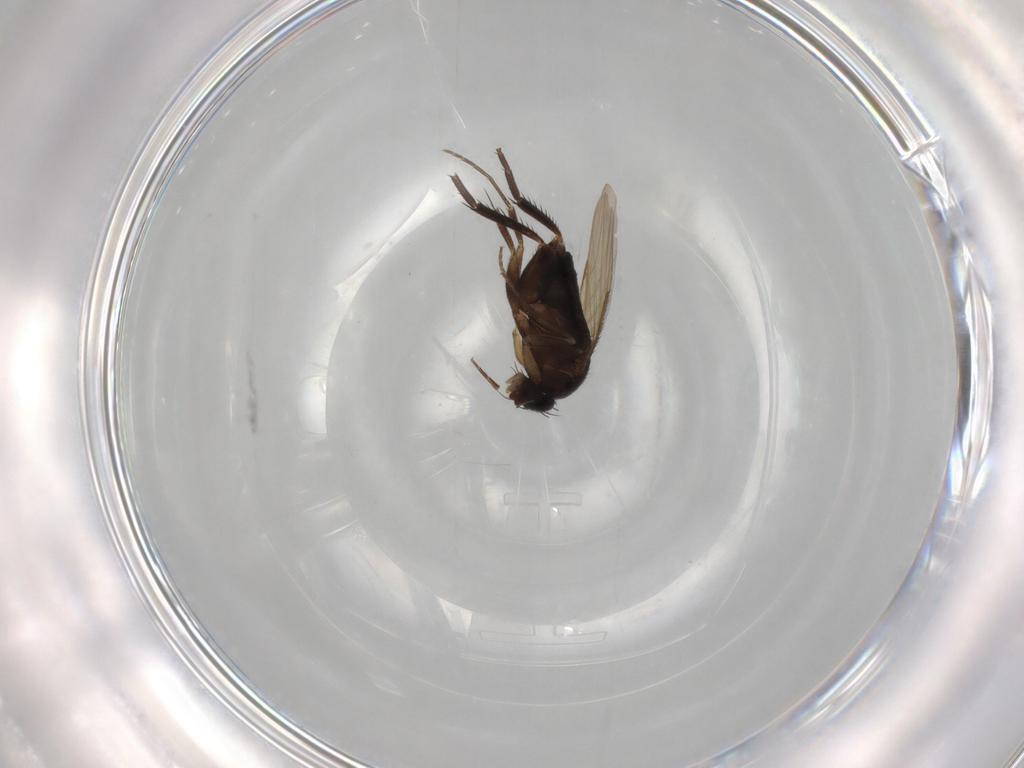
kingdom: Animalia
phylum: Arthropoda
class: Insecta
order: Diptera
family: Phoridae
